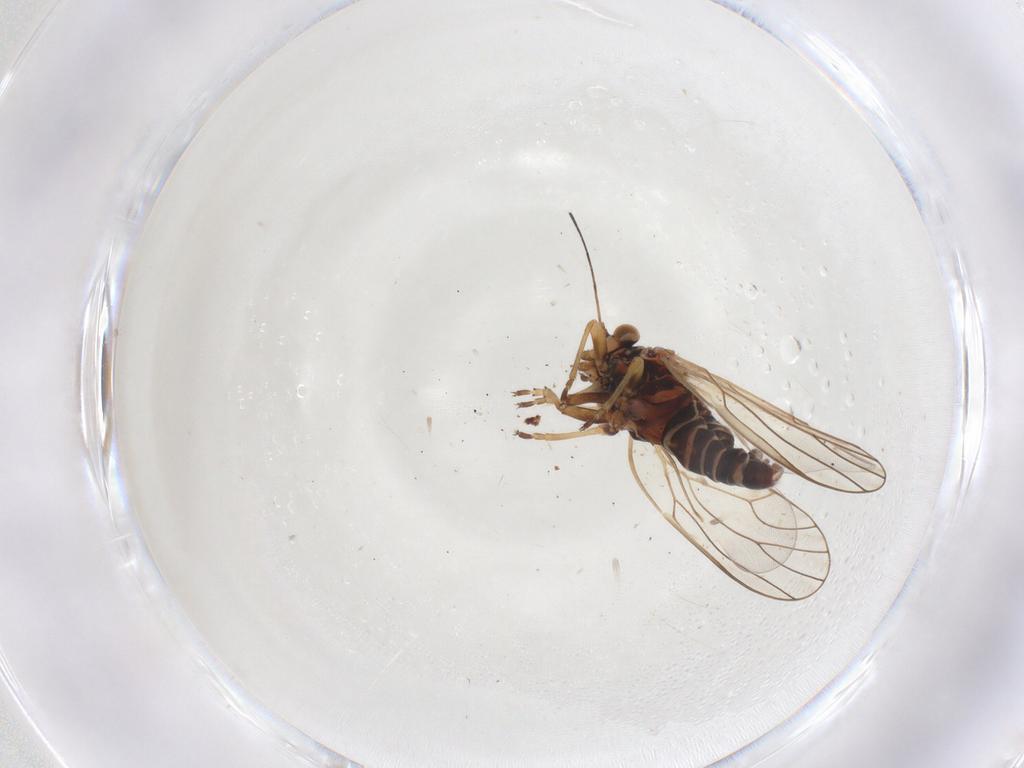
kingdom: Animalia
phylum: Arthropoda
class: Insecta
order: Hemiptera
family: Psyllidae
